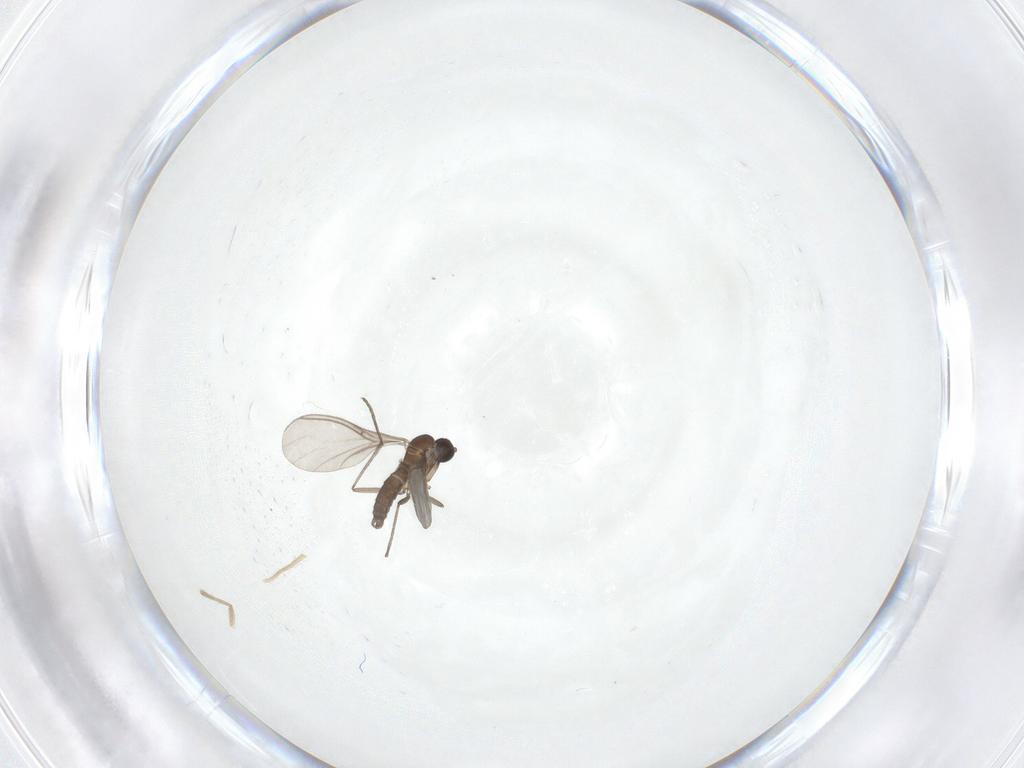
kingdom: Animalia
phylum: Arthropoda
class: Insecta
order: Diptera
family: Sciaridae
